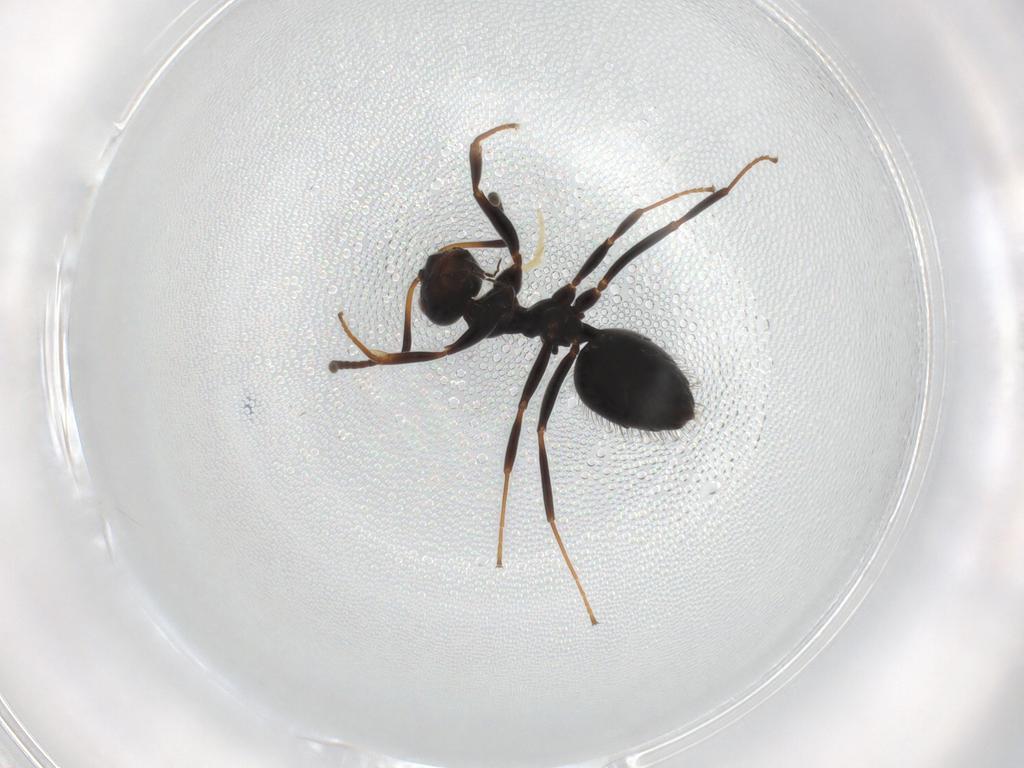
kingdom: Animalia
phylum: Arthropoda
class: Insecta
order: Hymenoptera
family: Formicidae
